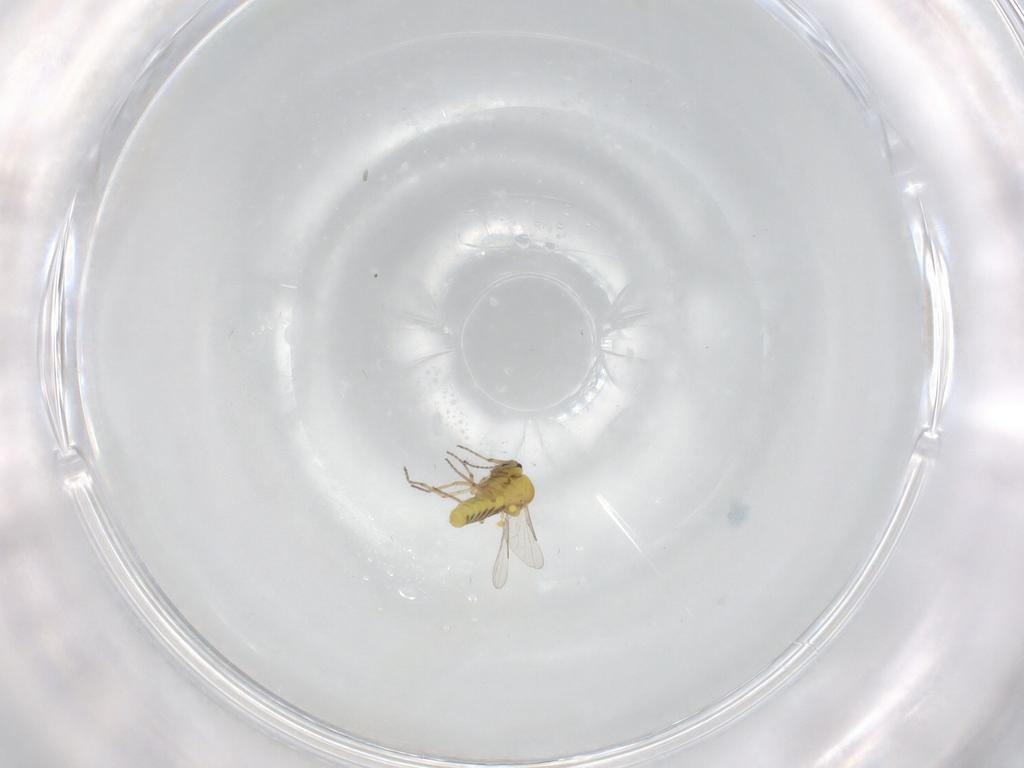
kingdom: Animalia
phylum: Arthropoda
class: Insecta
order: Diptera
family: Ceratopogonidae
